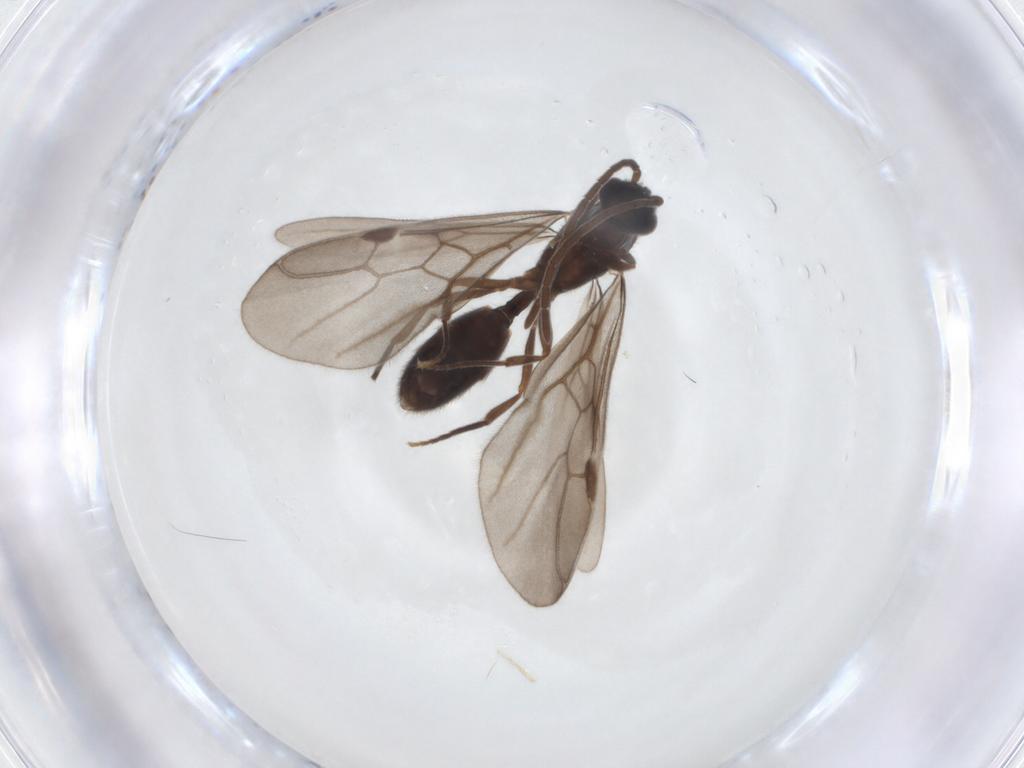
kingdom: Animalia
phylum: Arthropoda
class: Insecta
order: Hymenoptera
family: Formicidae
